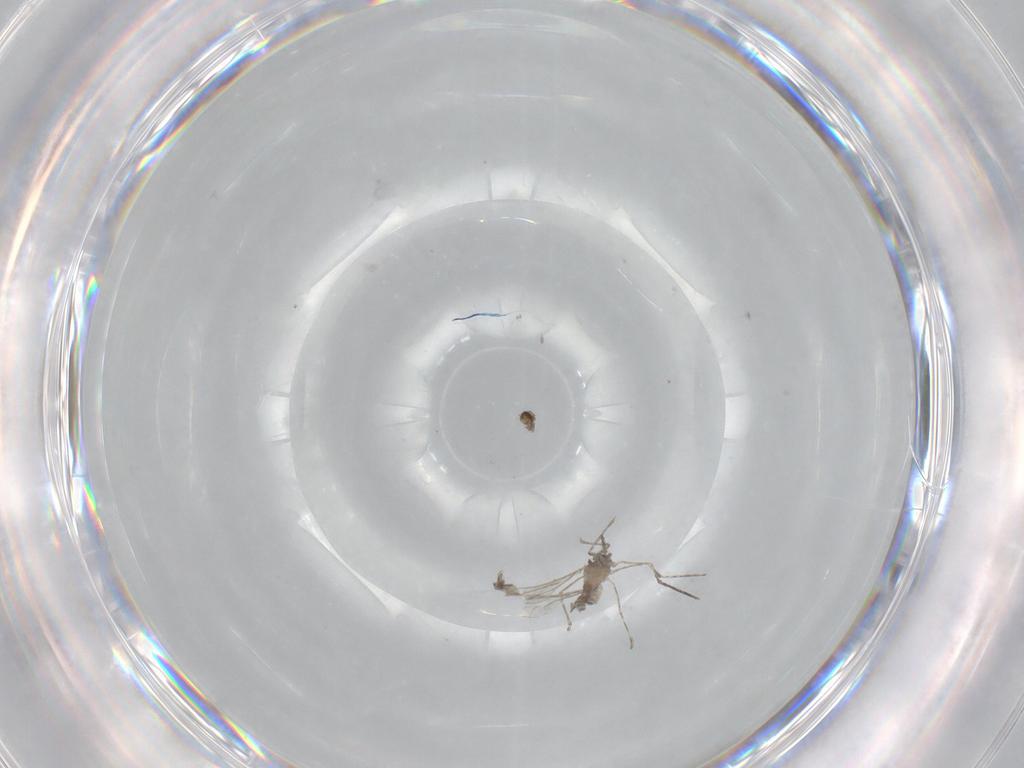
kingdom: Animalia
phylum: Arthropoda
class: Insecta
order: Diptera
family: Cecidomyiidae
